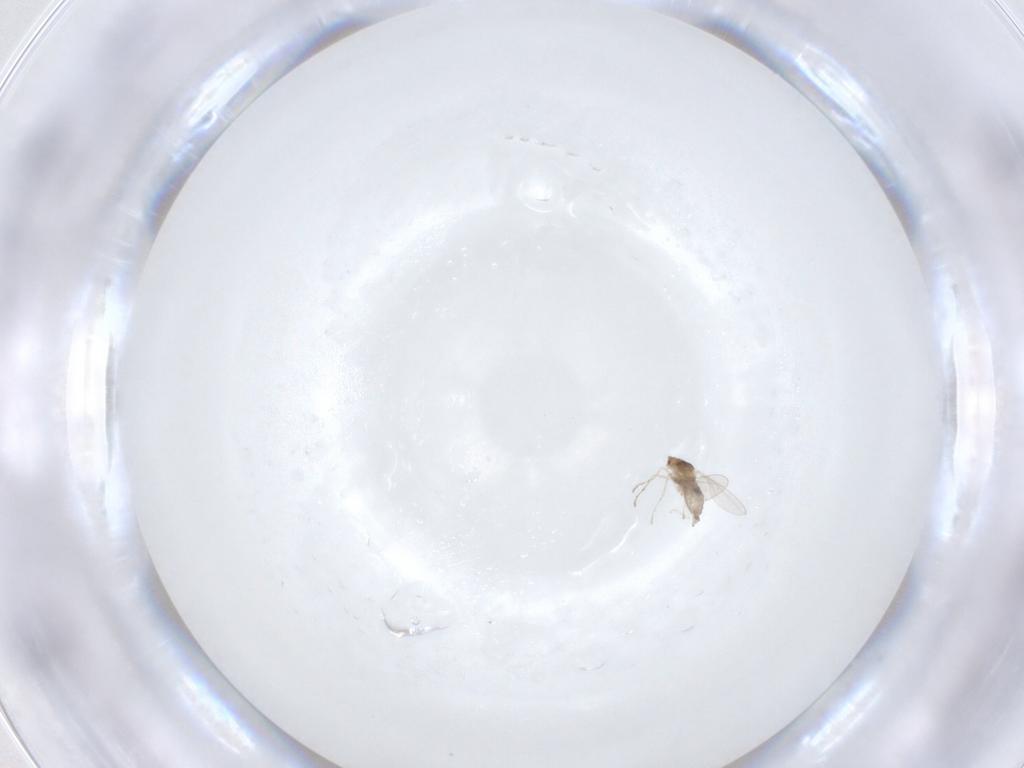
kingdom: Animalia
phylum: Arthropoda
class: Insecta
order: Diptera
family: Cecidomyiidae
